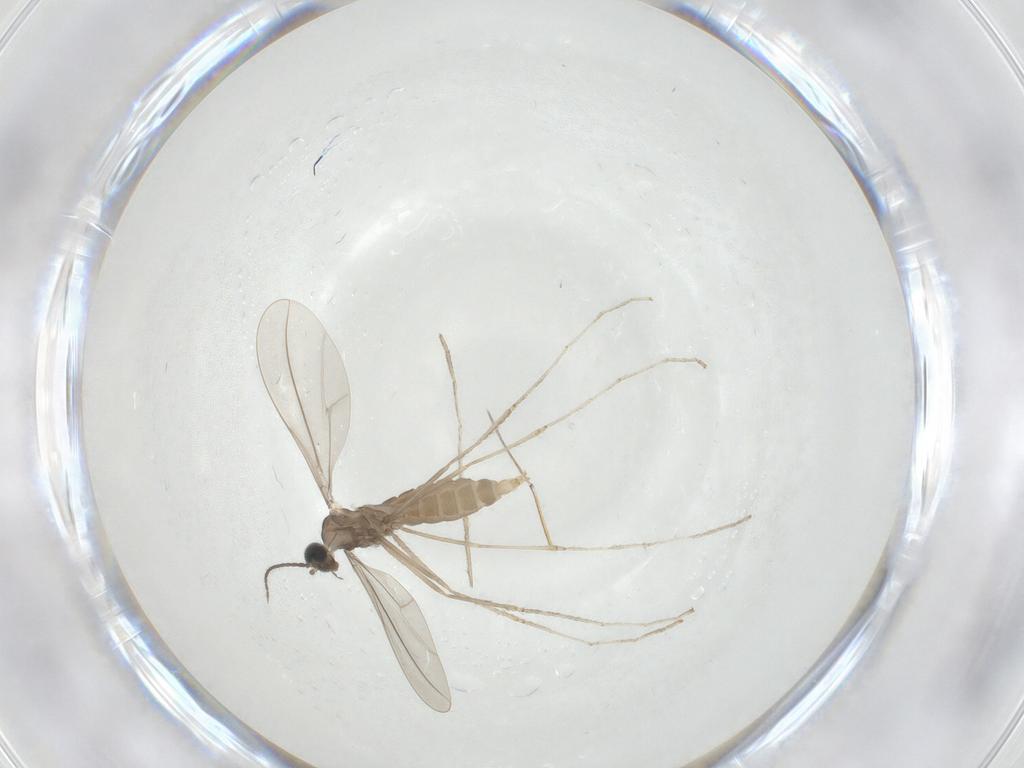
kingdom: Animalia
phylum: Arthropoda
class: Insecta
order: Diptera
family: Cecidomyiidae
